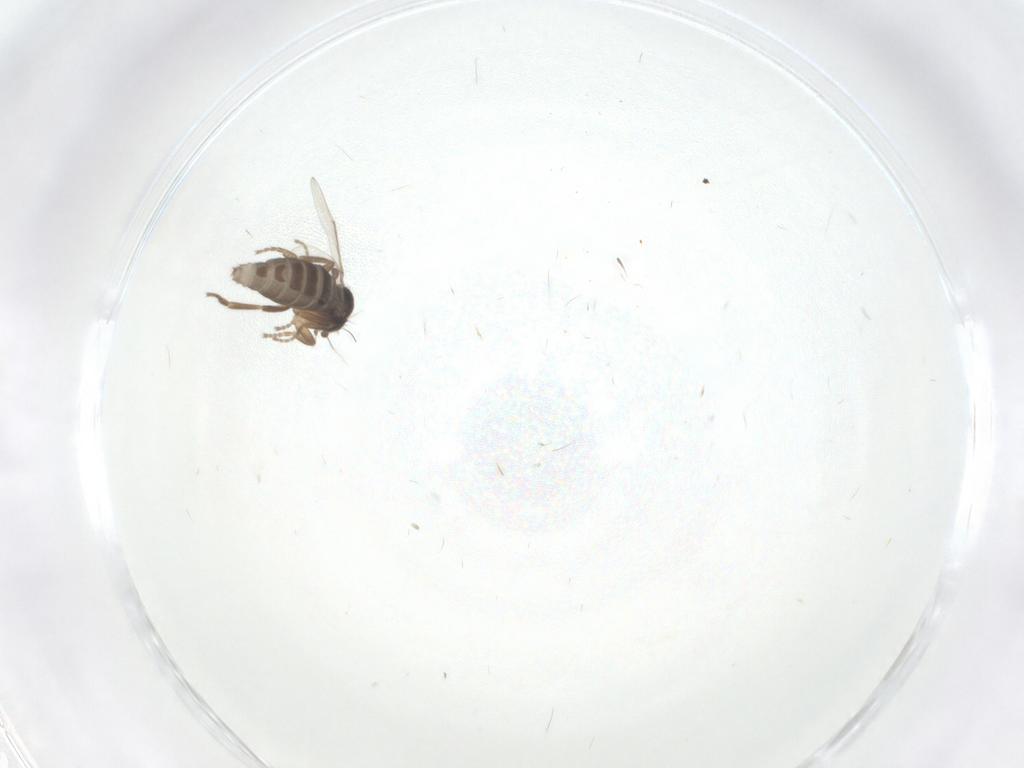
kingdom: Animalia
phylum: Arthropoda
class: Insecta
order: Diptera
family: Phoridae
